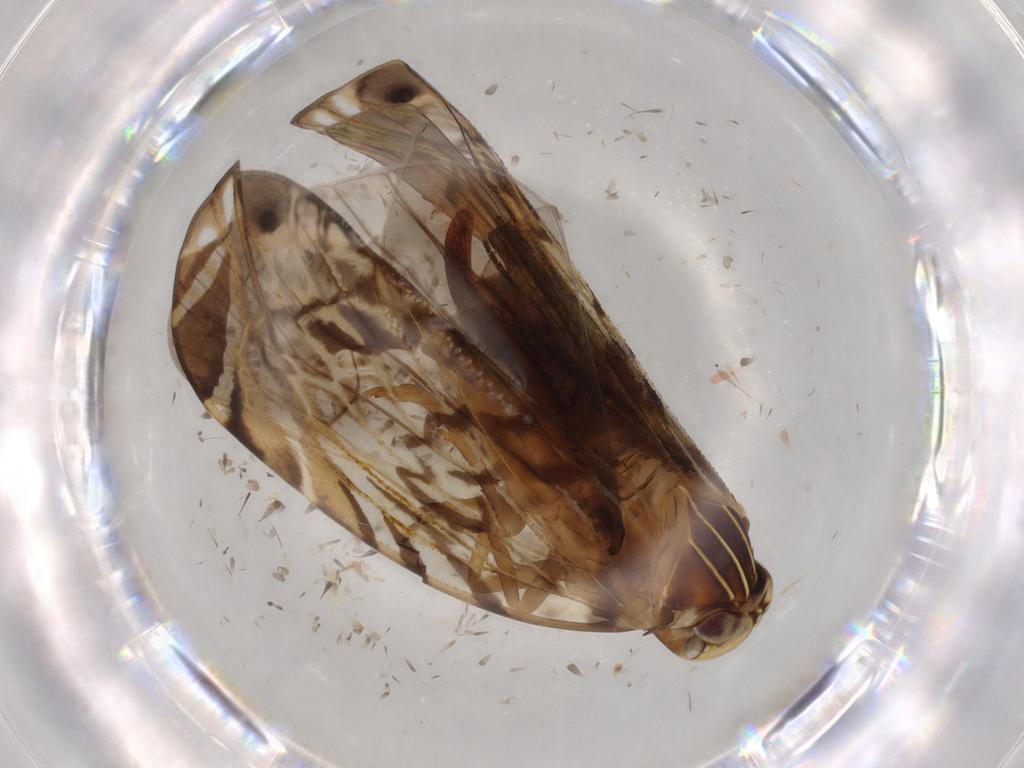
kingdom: Animalia
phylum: Arthropoda
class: Insecta
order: Hemiptera
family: Cixiidae
